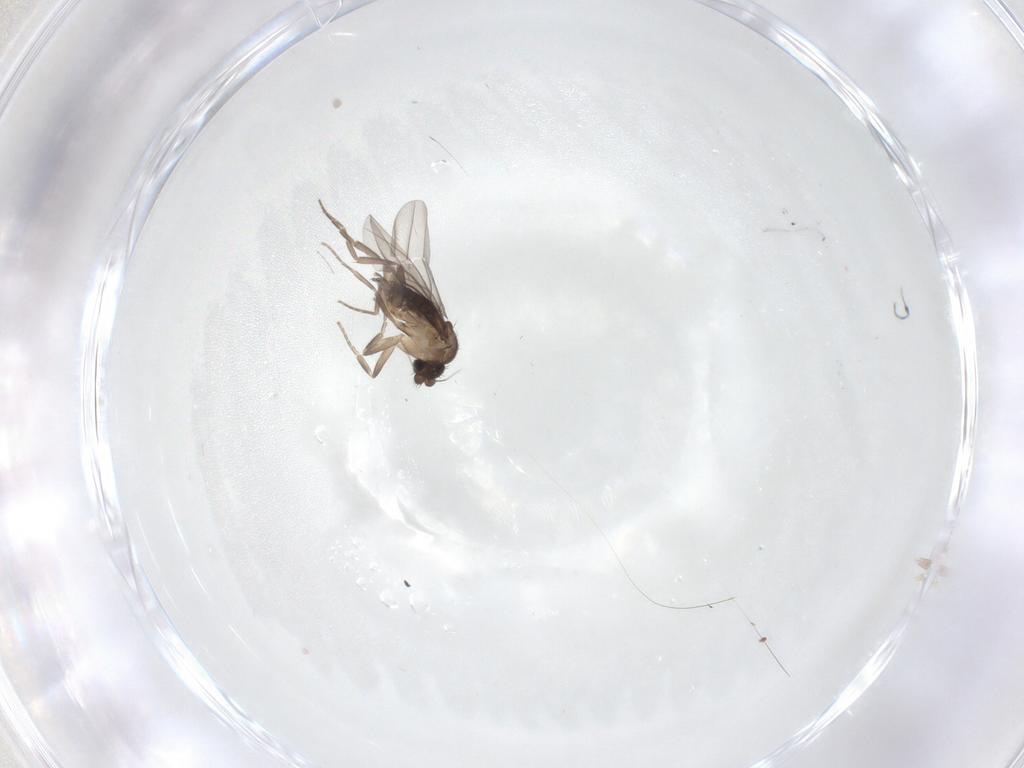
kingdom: Animalia
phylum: Arthropoda
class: Insecta
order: Diptera
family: Phoridae
